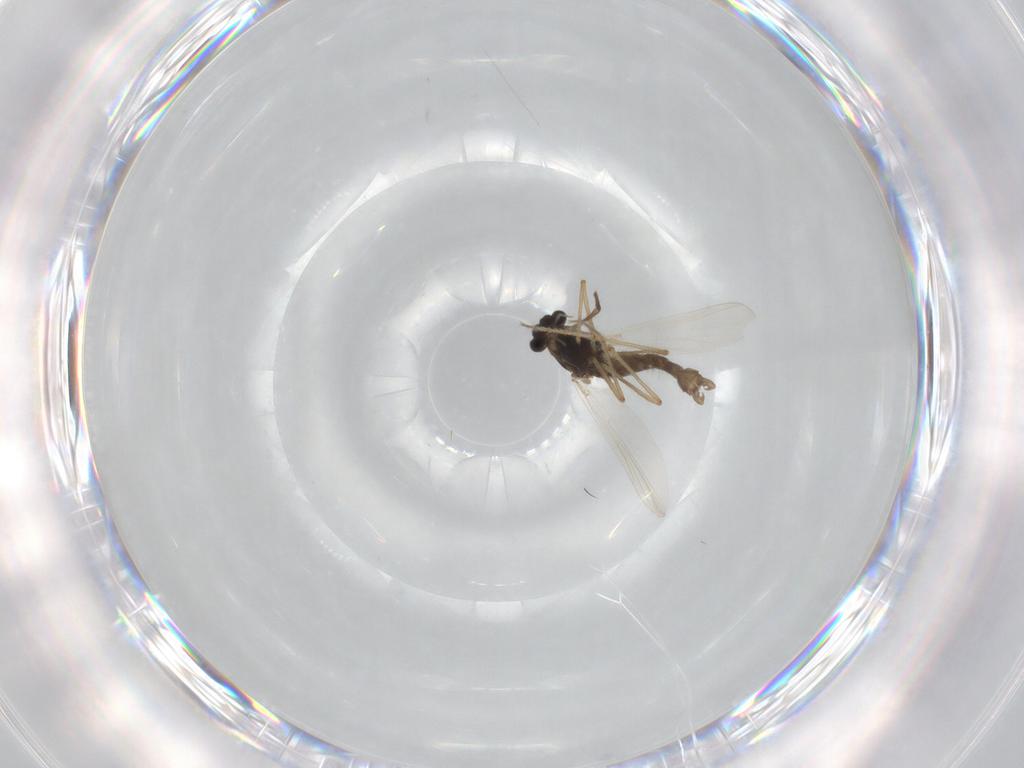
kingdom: Animalia
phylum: Arthropoda
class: Insecta
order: Diptera
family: Chironomidae
